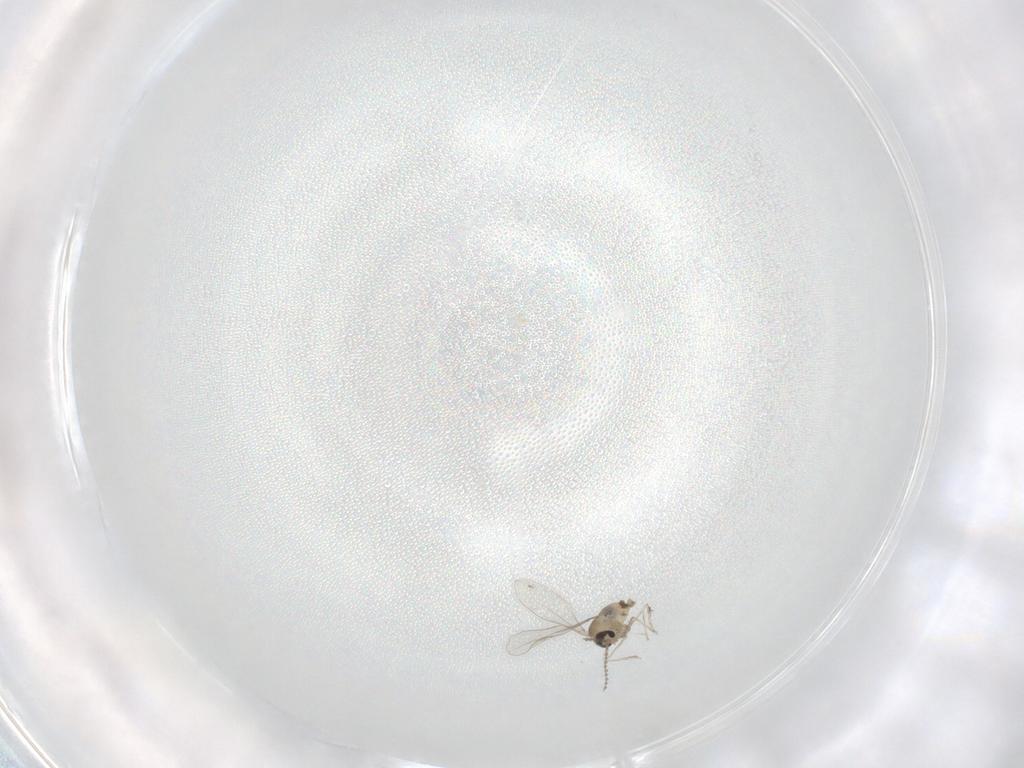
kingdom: Animalia
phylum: Arthropoda
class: Insecta
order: Diptera
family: Cecidomyiidae
